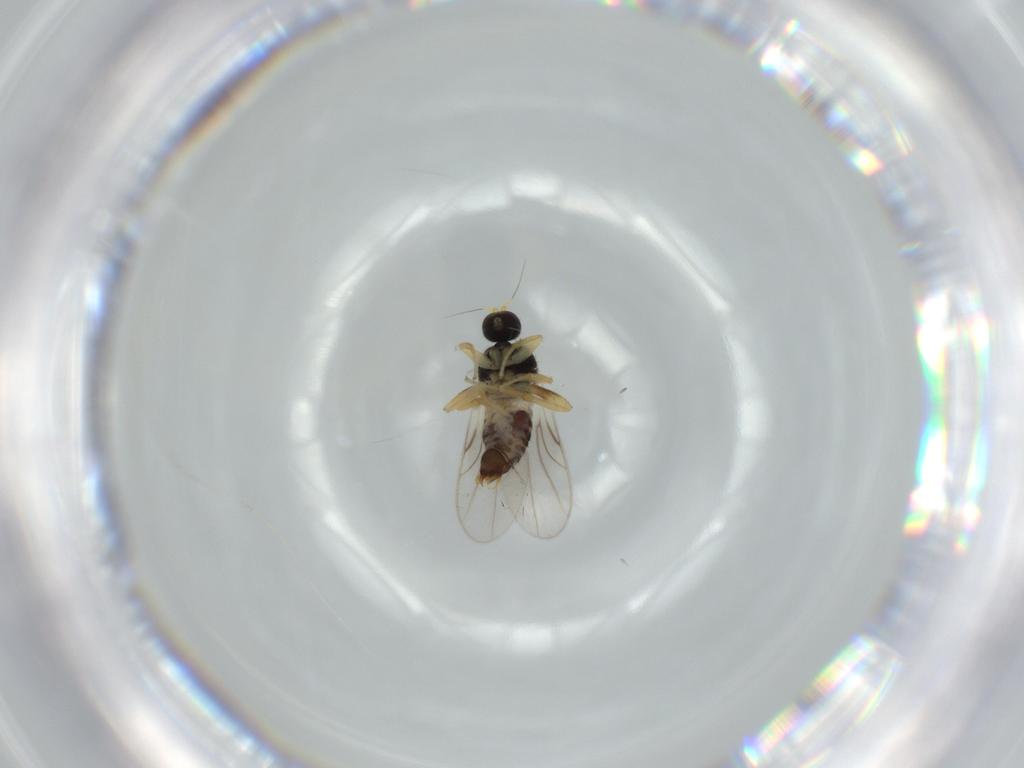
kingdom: Animalia
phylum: Arthropoda
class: Insecta
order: Diptera
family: Hybotidae
